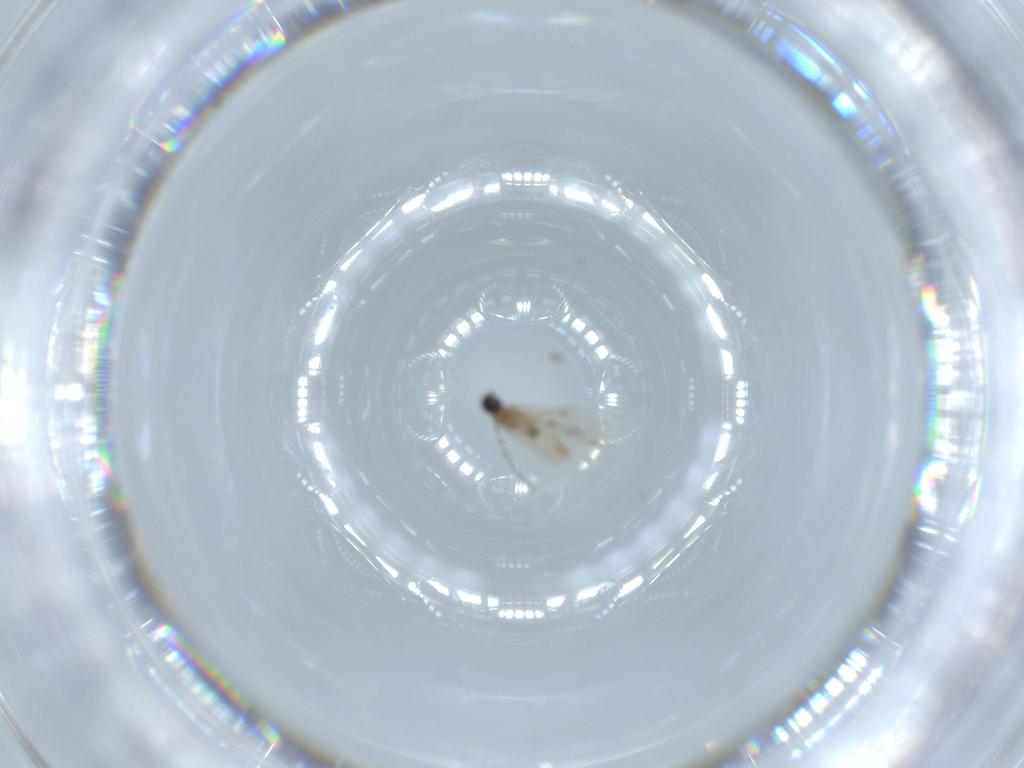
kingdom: Animalia
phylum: Arthropoda
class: Insecta
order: Diptera
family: Cecidomyiidae
